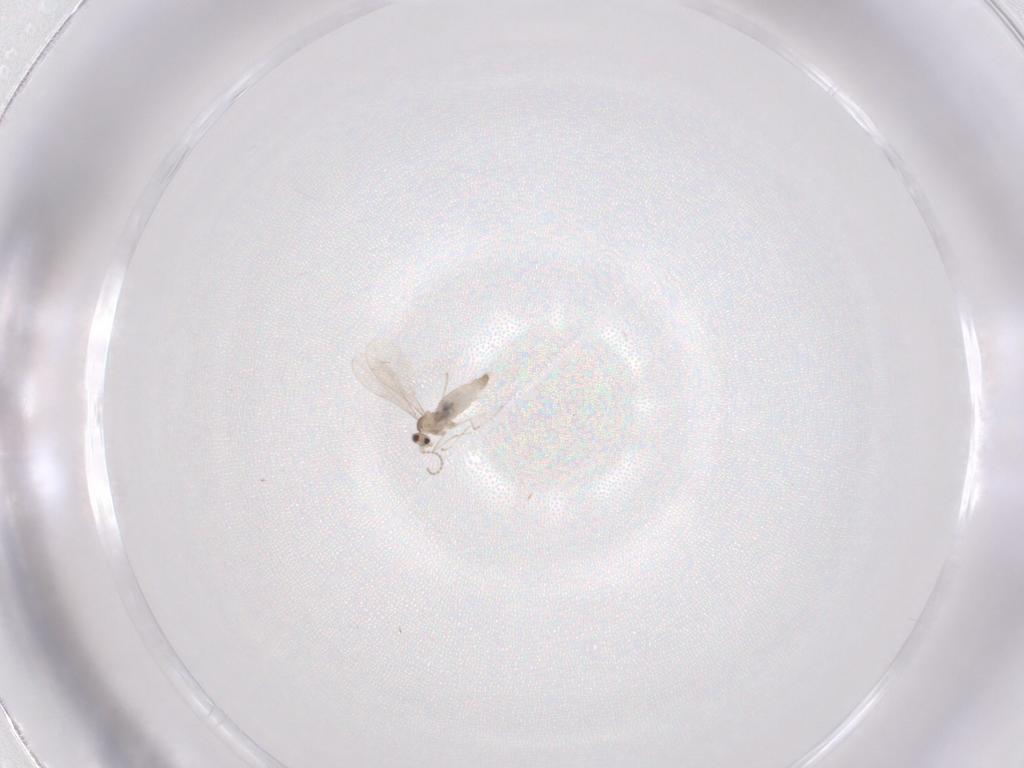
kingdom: Animalia
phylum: Arthropoda
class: Insecta
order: Diptera
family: Cecidomyiidae
